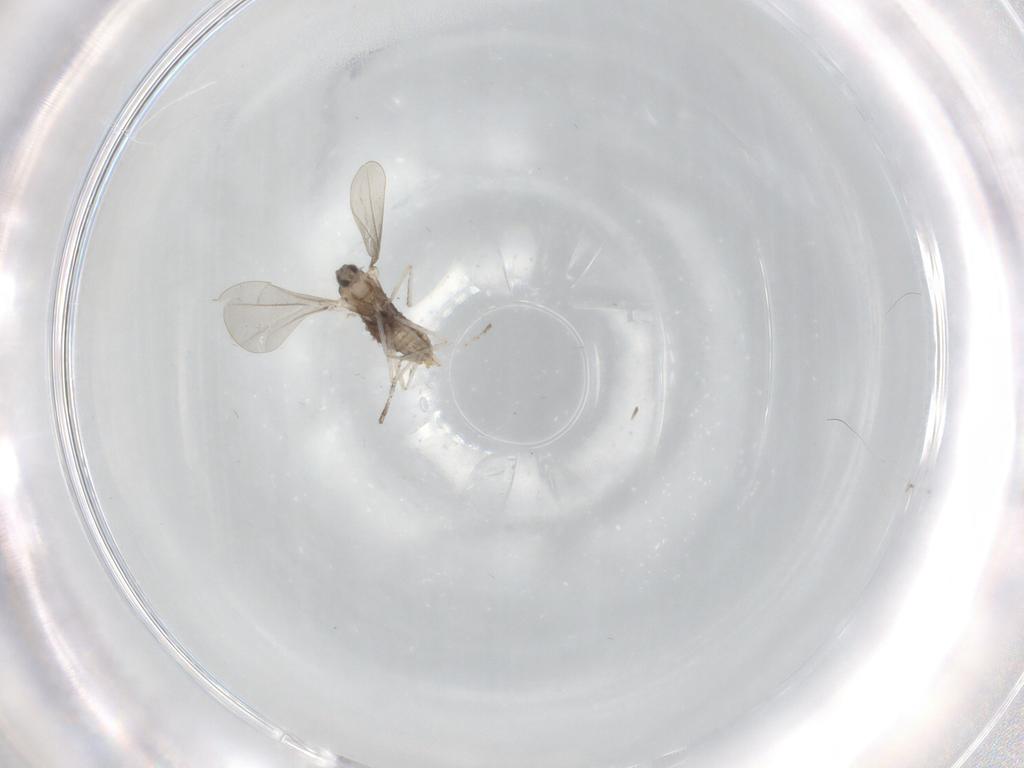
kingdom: Animalia
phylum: Arthropoda
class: Insecta
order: Diptera
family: Cecidomyiidae
